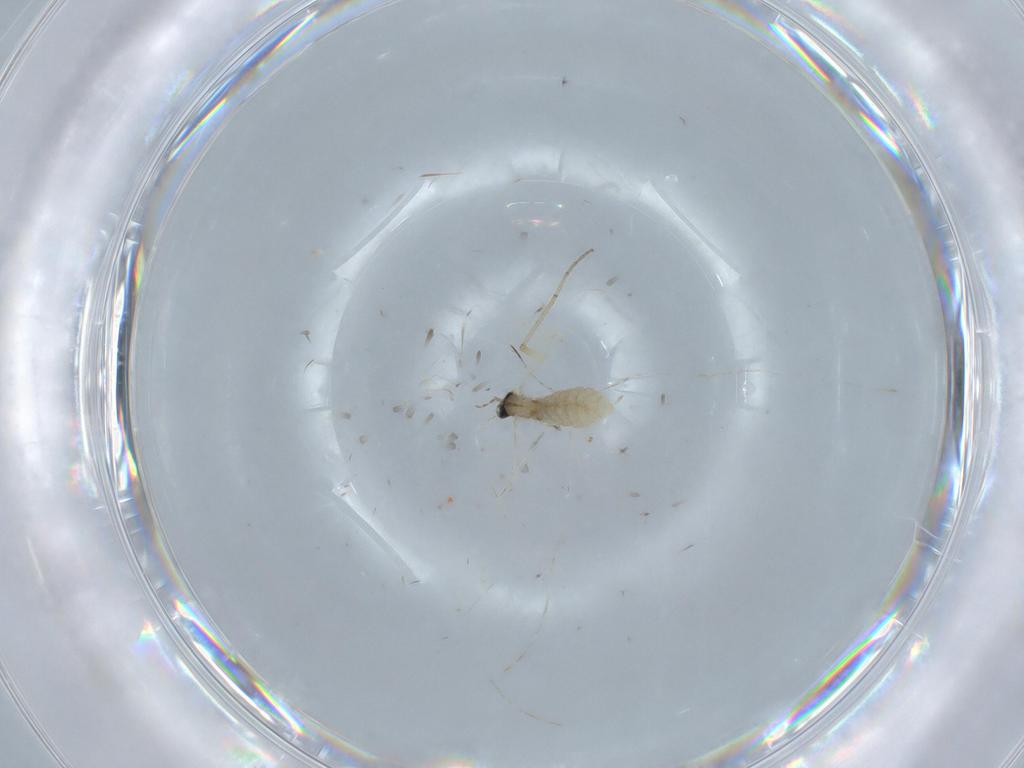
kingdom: Animalia
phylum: Arthropoda
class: Insecta
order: Diptera
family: Cecidomyiidae
